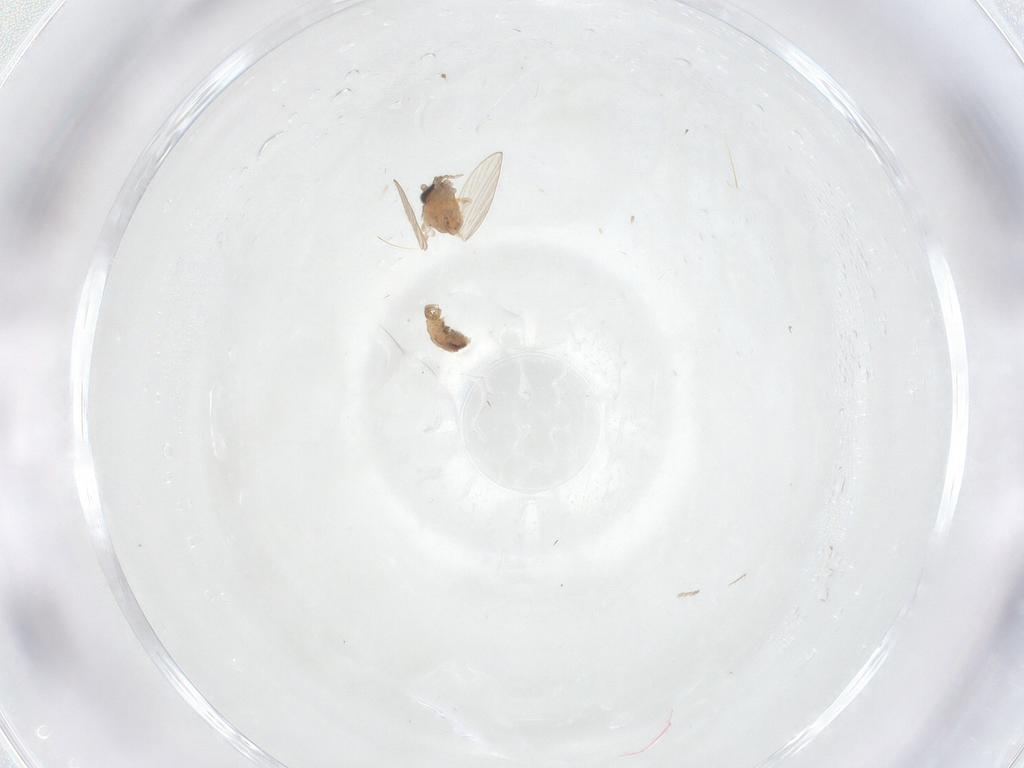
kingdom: Animalia
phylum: Arthropoda
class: Insecta
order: Diptera
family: Psychodidae
